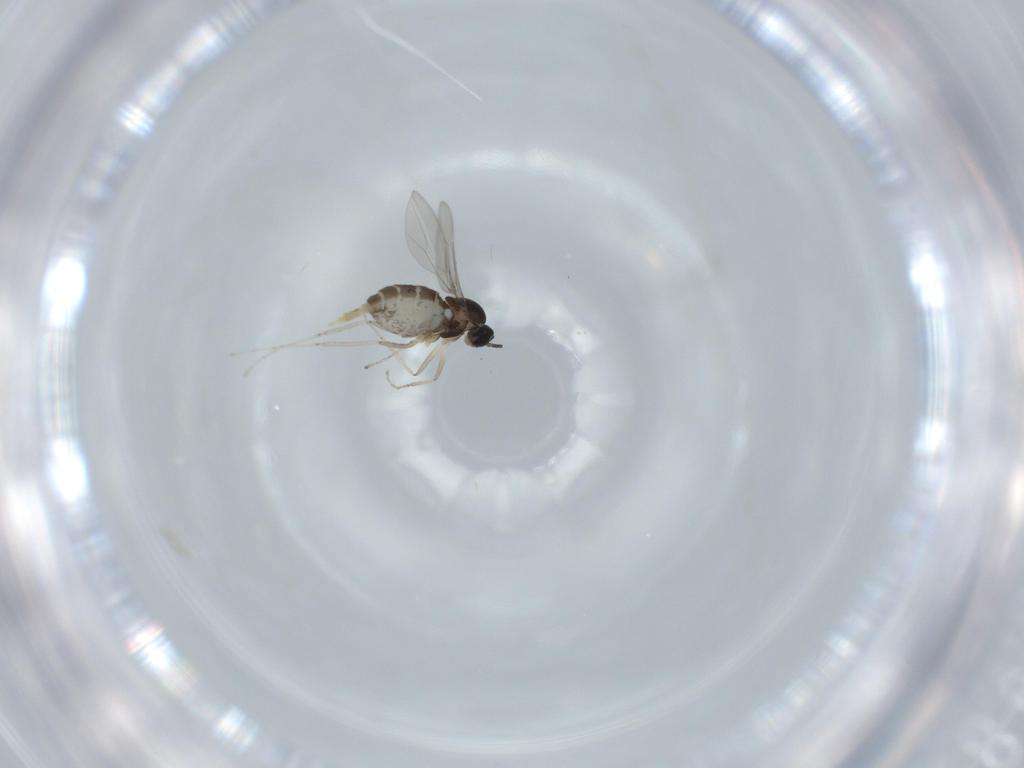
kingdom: Animalia
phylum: Arthropoda
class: Insecta
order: Diptera
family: Cecidomyiidae
